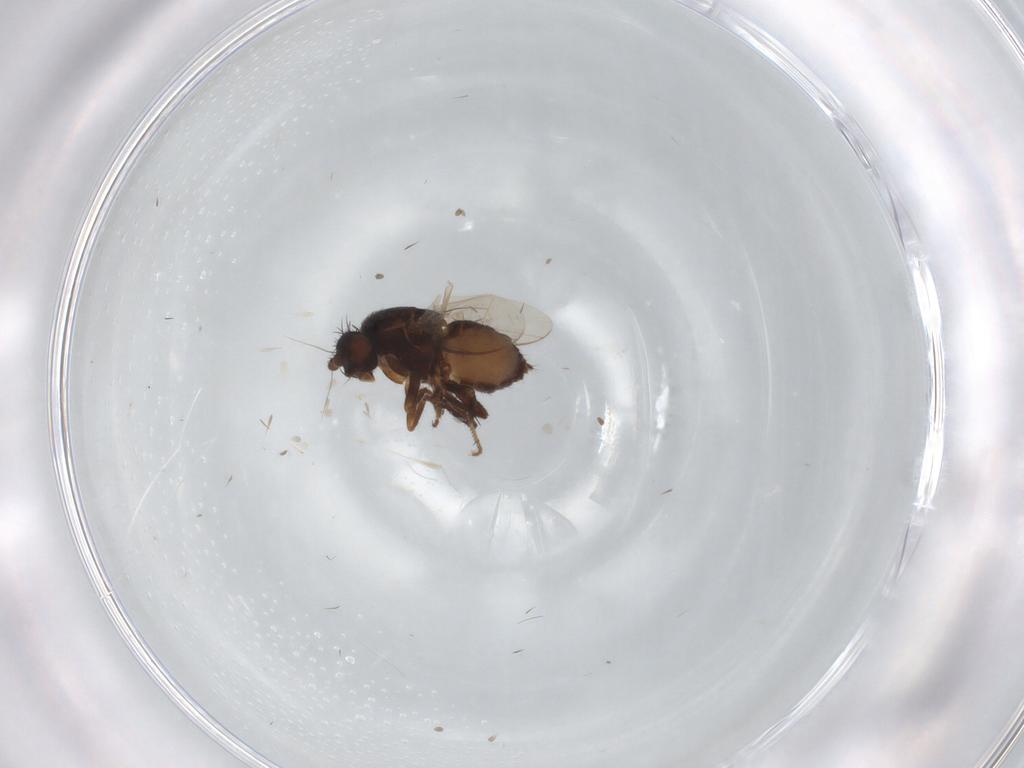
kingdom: Animalia
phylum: Arthropoda
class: Insecta
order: Diptera
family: Sphaeroceridae
